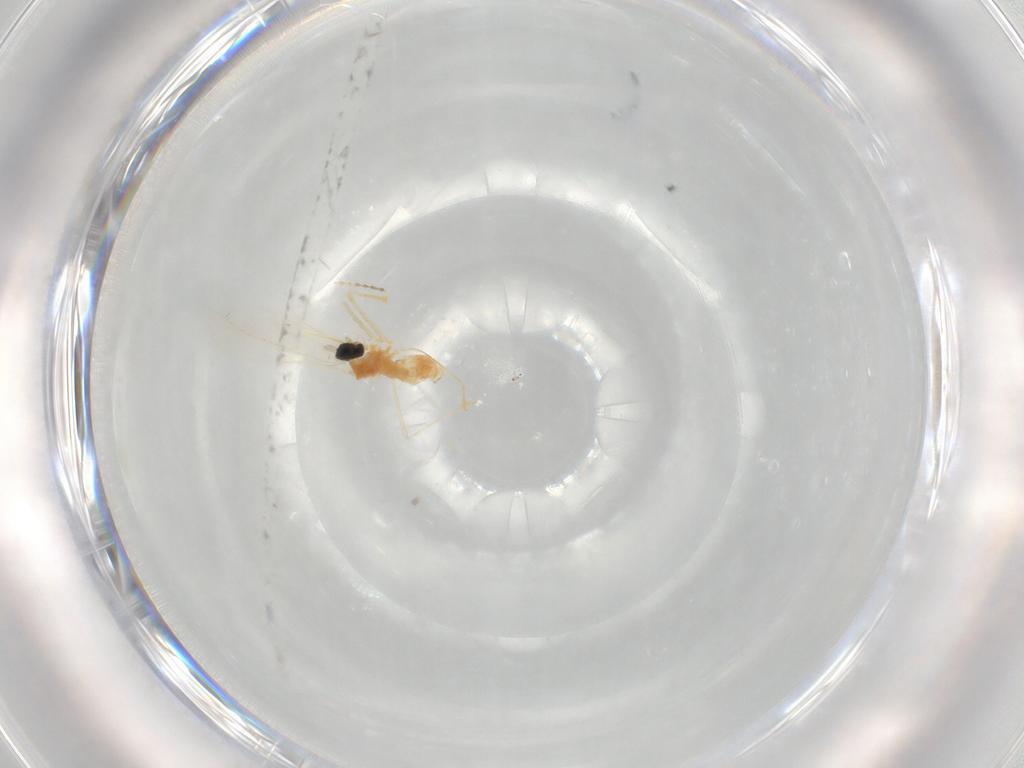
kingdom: Animalia
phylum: Arthropoda
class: Insecta
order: Diptera
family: Cecidomyiidae
